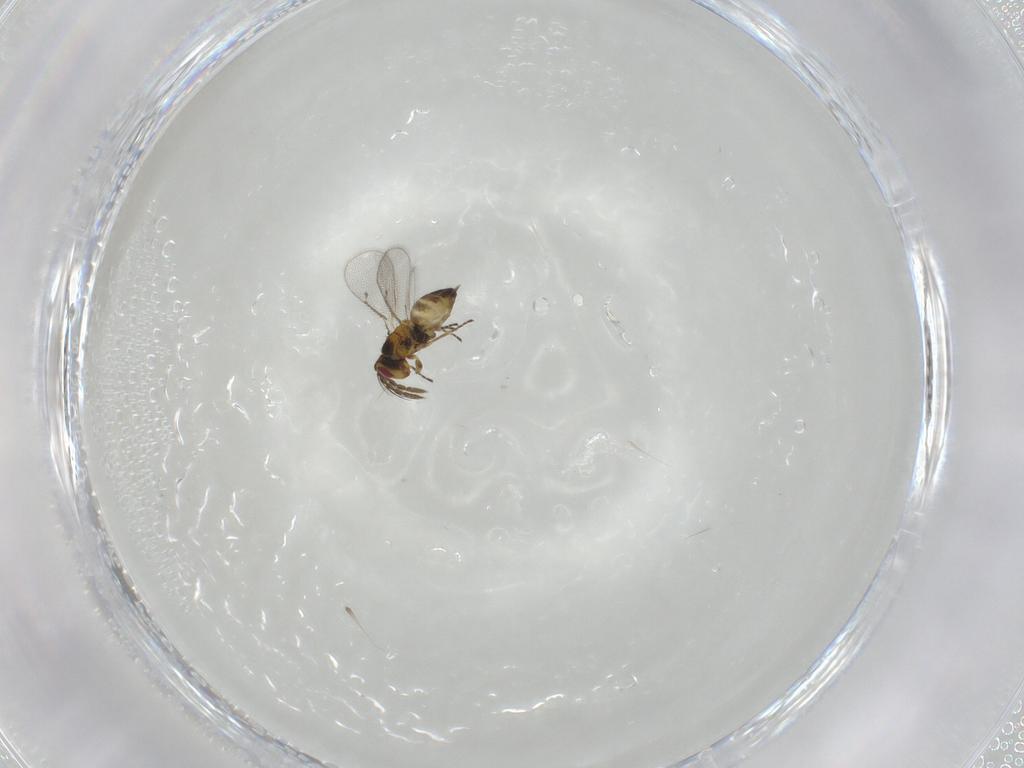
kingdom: Animalia
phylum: Arthropoda
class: Insecta
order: Hymenoptera
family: Eulophidae
